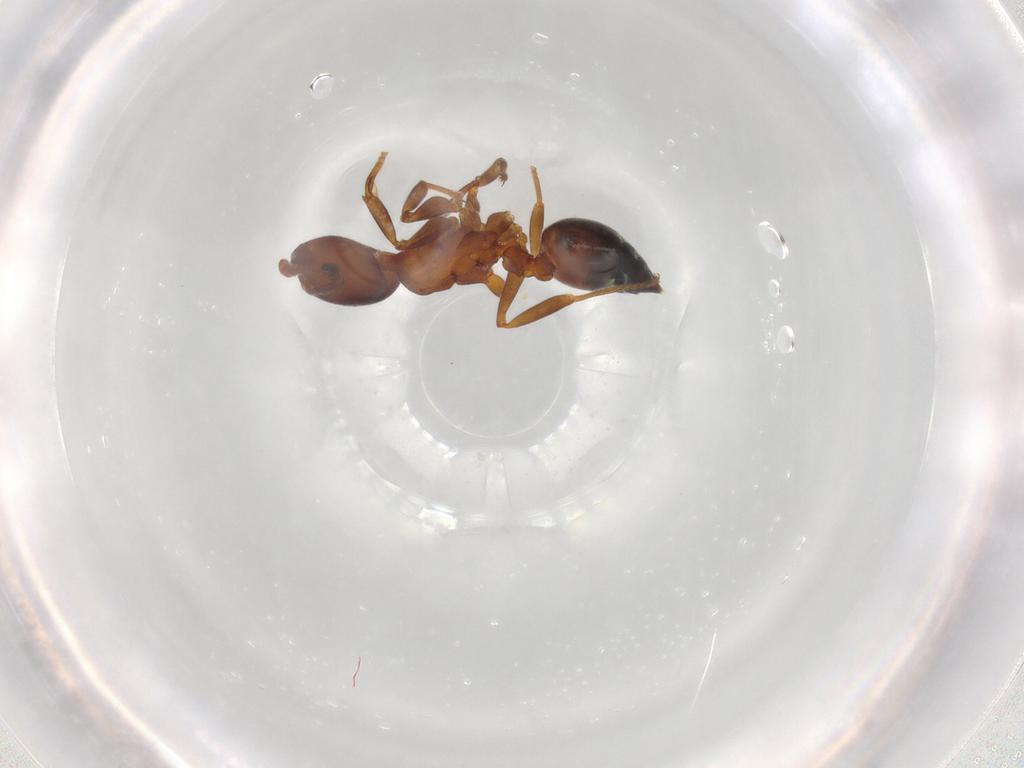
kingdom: Animalia
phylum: Arthropoda
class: Insecta
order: Hymenoptera
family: Formicidae
